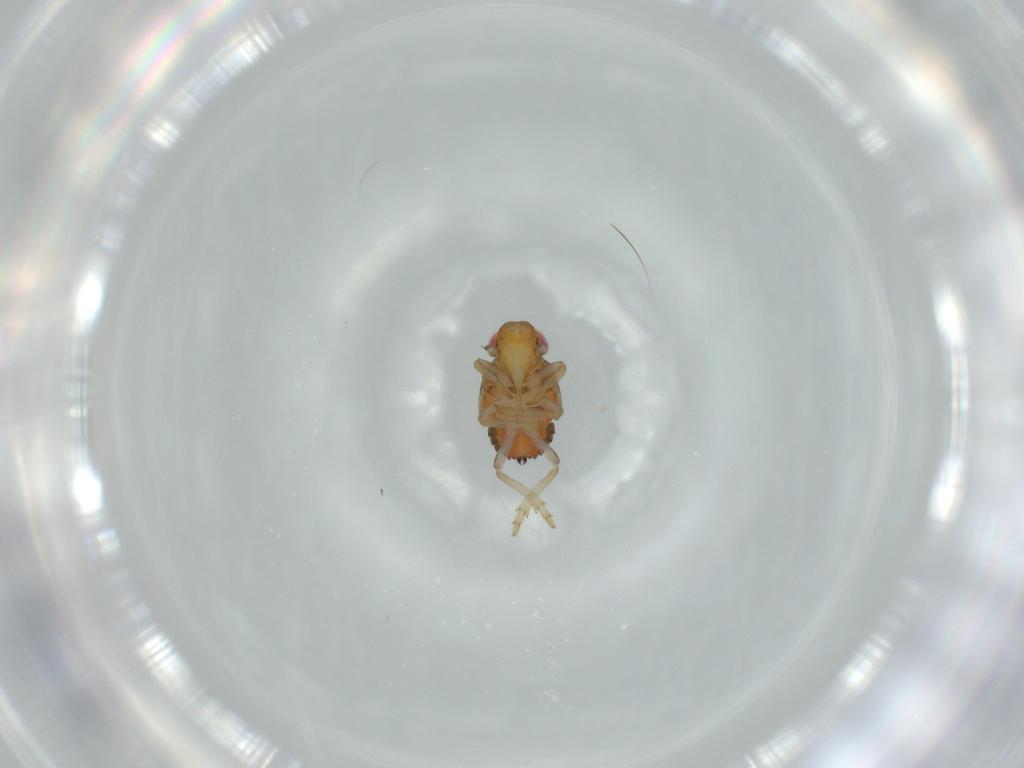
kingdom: Animalia
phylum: Arthropoda
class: Insecta
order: Hemiptera
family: Issidae
